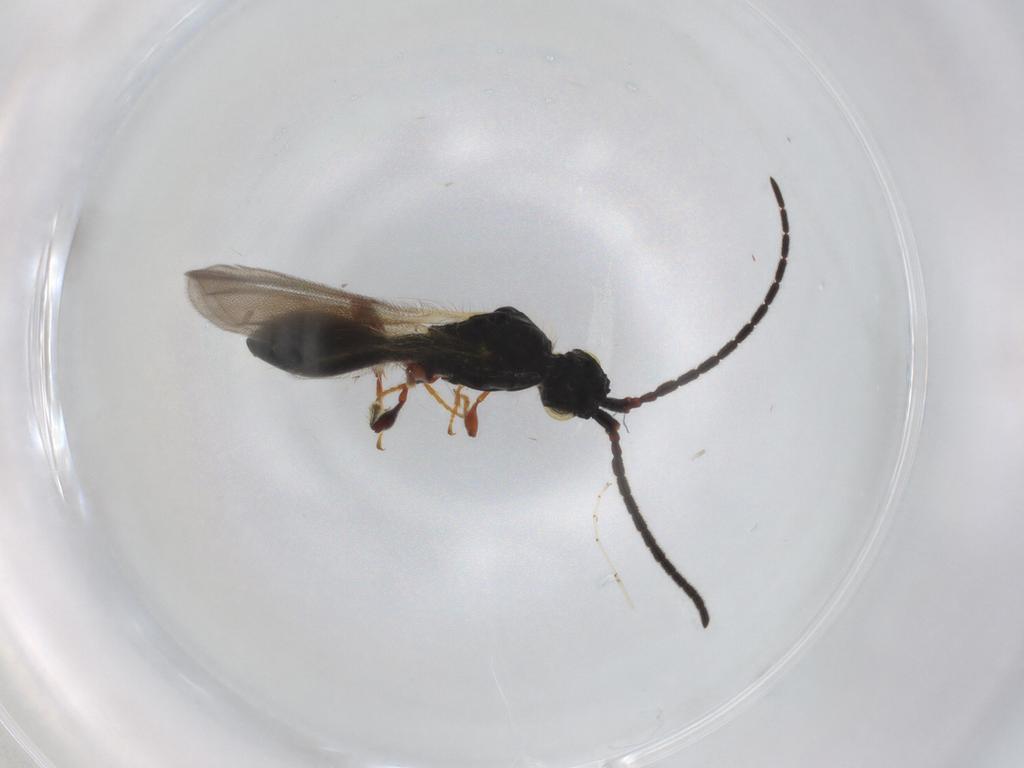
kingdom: Animalia
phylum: Arthropoda
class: Insecta
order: Hymenoptera
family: Diapriidae
